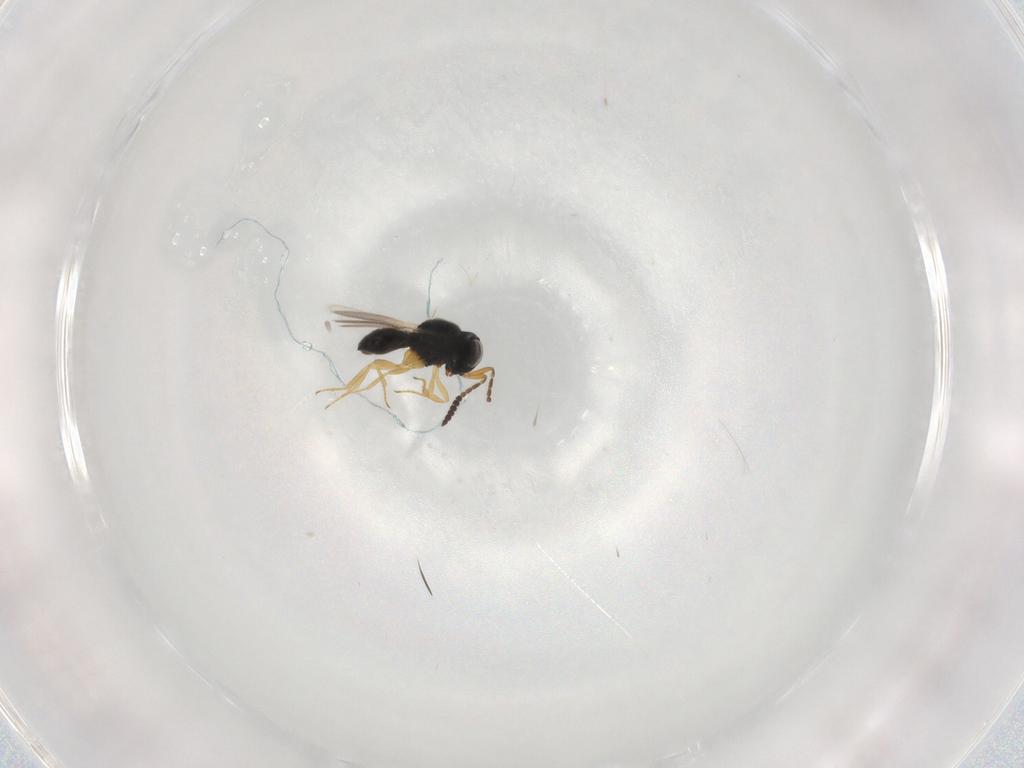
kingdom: Animalia
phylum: Arthropoda
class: Insecta
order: Hymenoptera
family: Scelionidae
